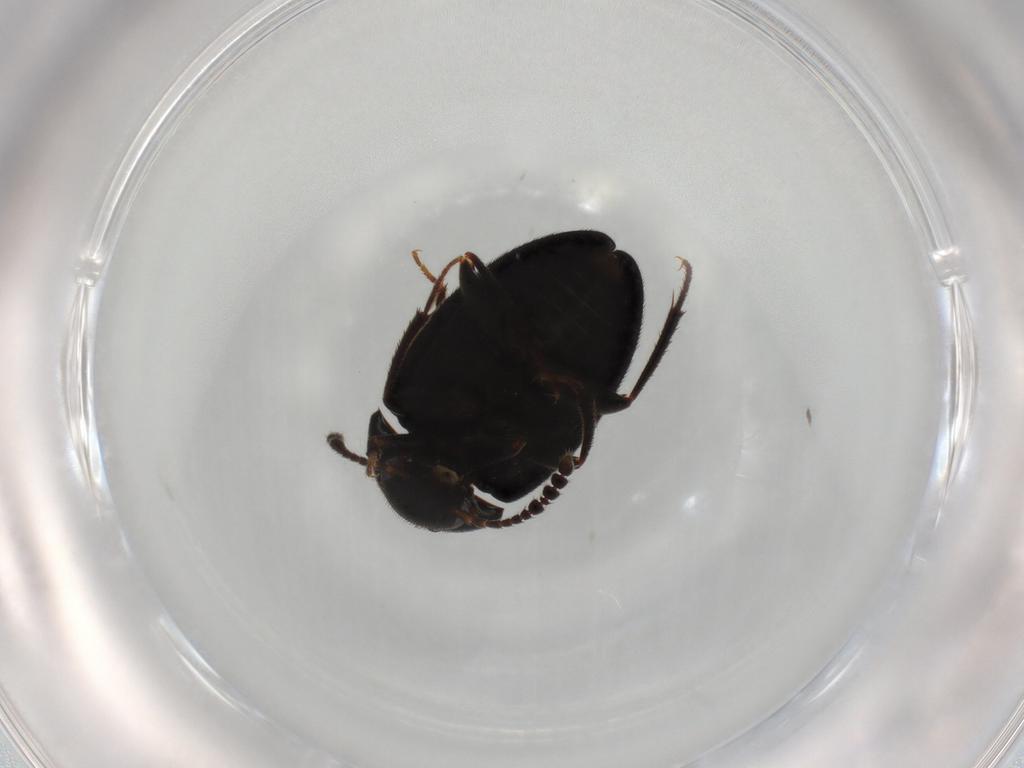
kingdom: Animalia
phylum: Arthropoda
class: Insecta
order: Coleoptera
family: Leiodidae
